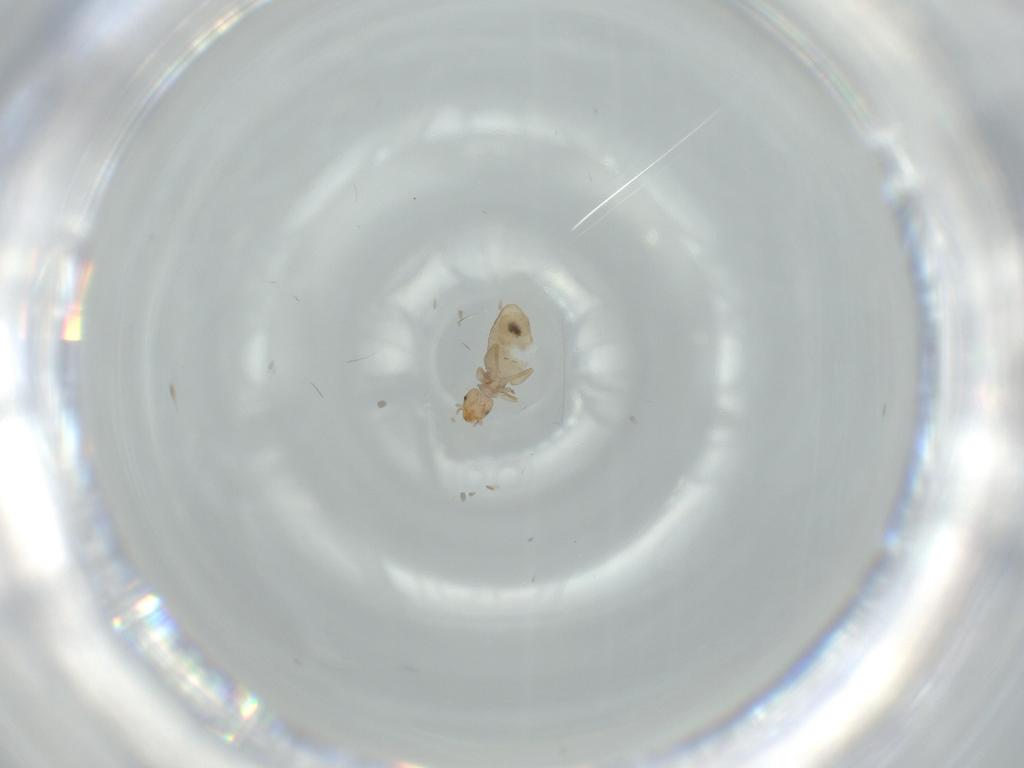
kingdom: Animalia
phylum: Arthropoda
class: Insecta
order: Psocodea
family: Liposcelididae
